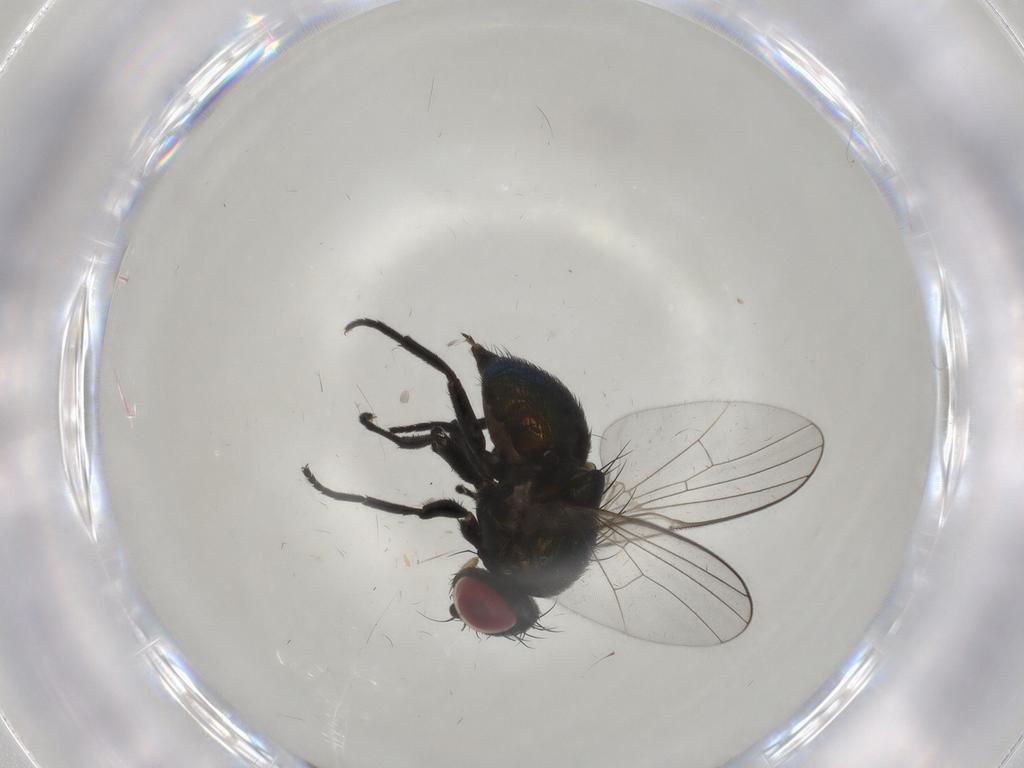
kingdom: Animalia
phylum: Arthropoda
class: Insecta
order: Diptera
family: Agromyzidae
